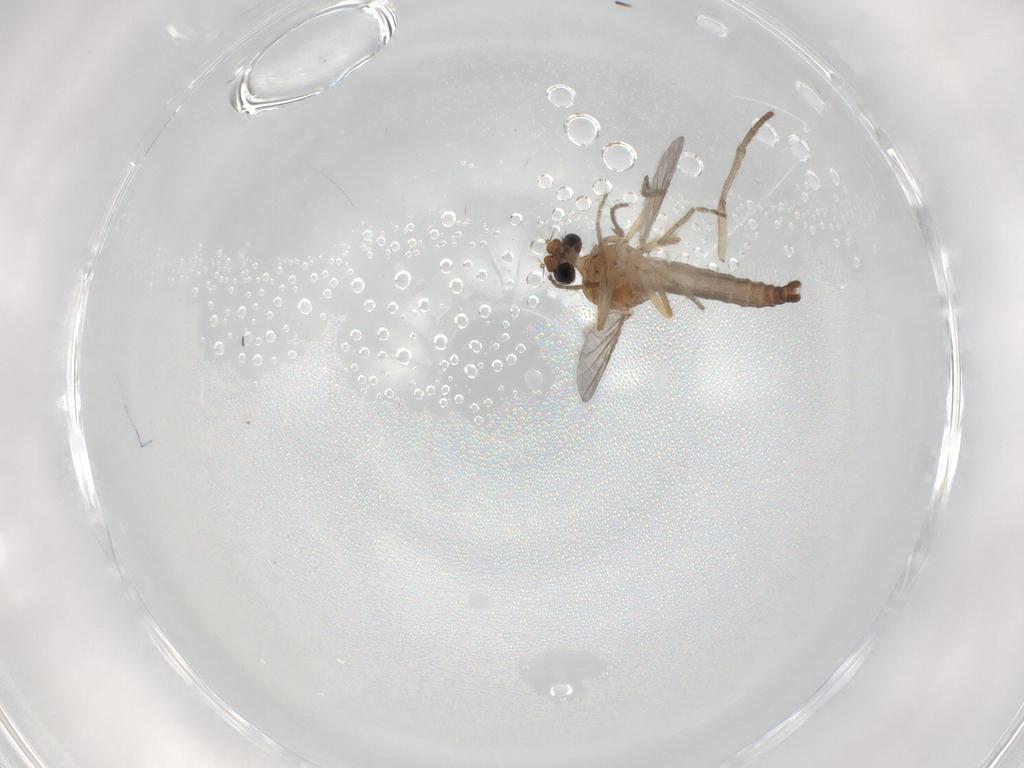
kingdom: Animalia
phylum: Arthropoda
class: Insecta
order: Diptera
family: Ceratopogonidae
